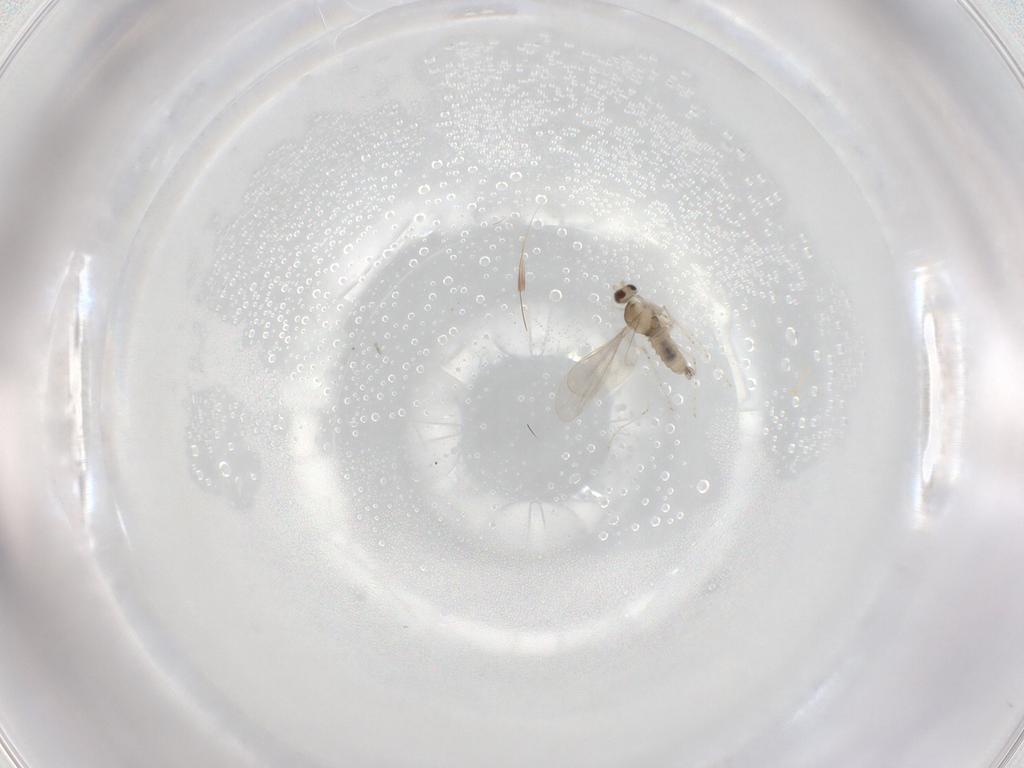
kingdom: Animalia
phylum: Arthropoda
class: Insecta
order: Diptera
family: Cecidomyiidae
